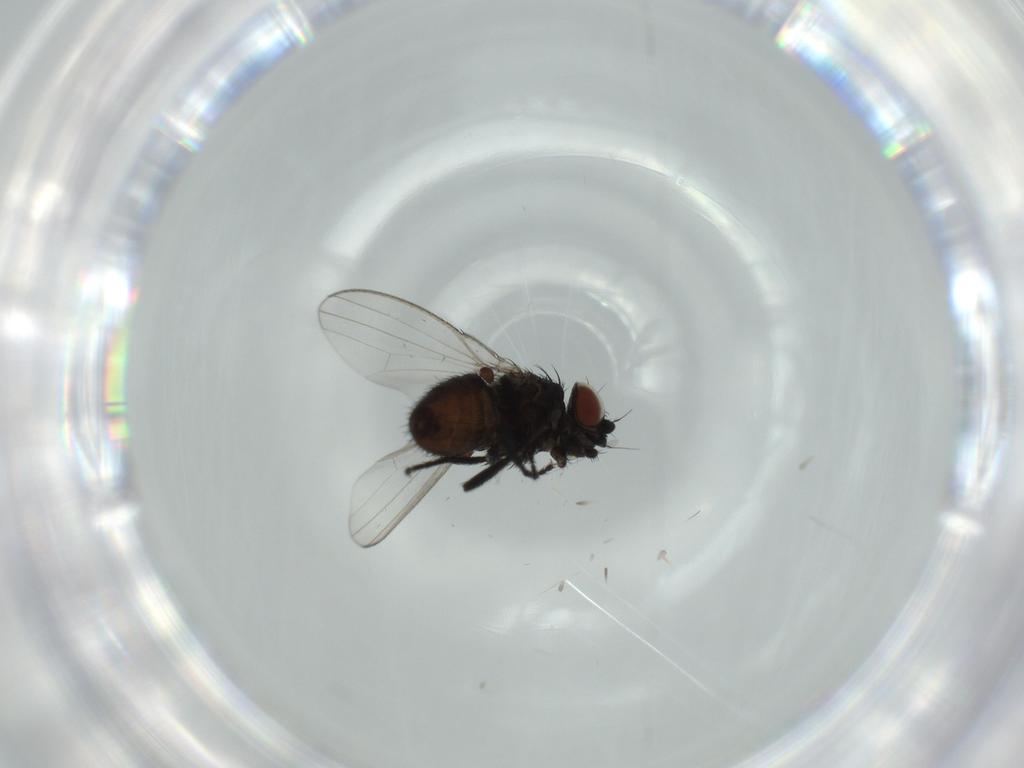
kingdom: Animalia
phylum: Arthropoda
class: Insecta
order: Diptera
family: Milichiidae
